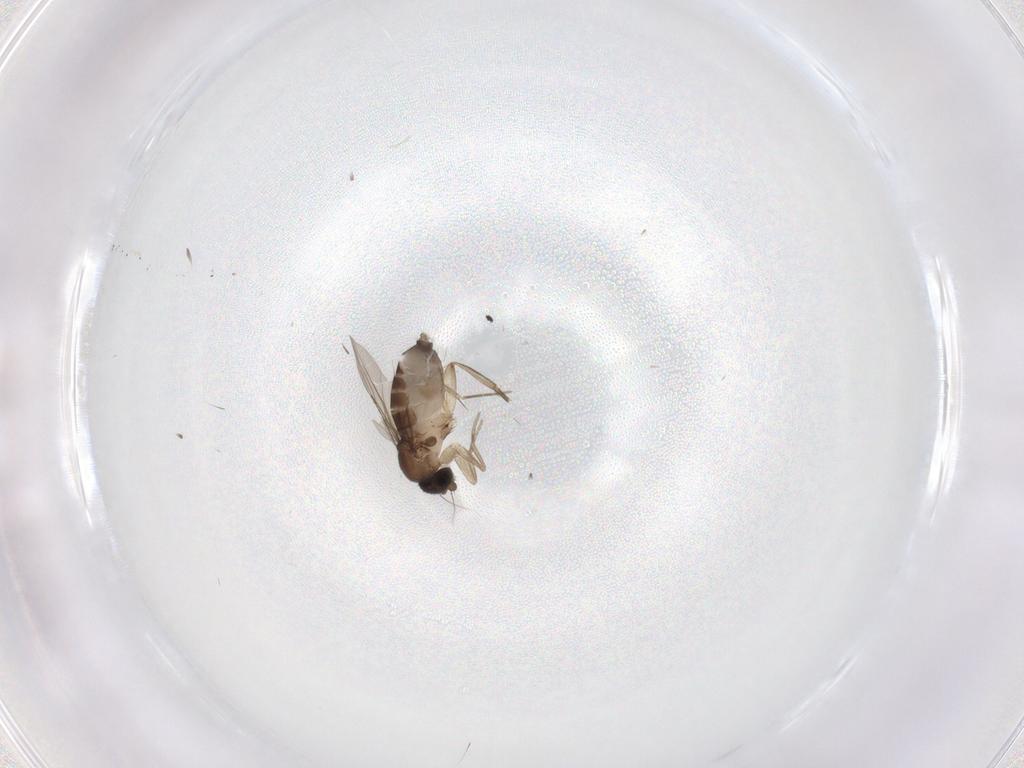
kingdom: Animalia
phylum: Arthropoda
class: Insecta
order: Diptera
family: Phoridae
